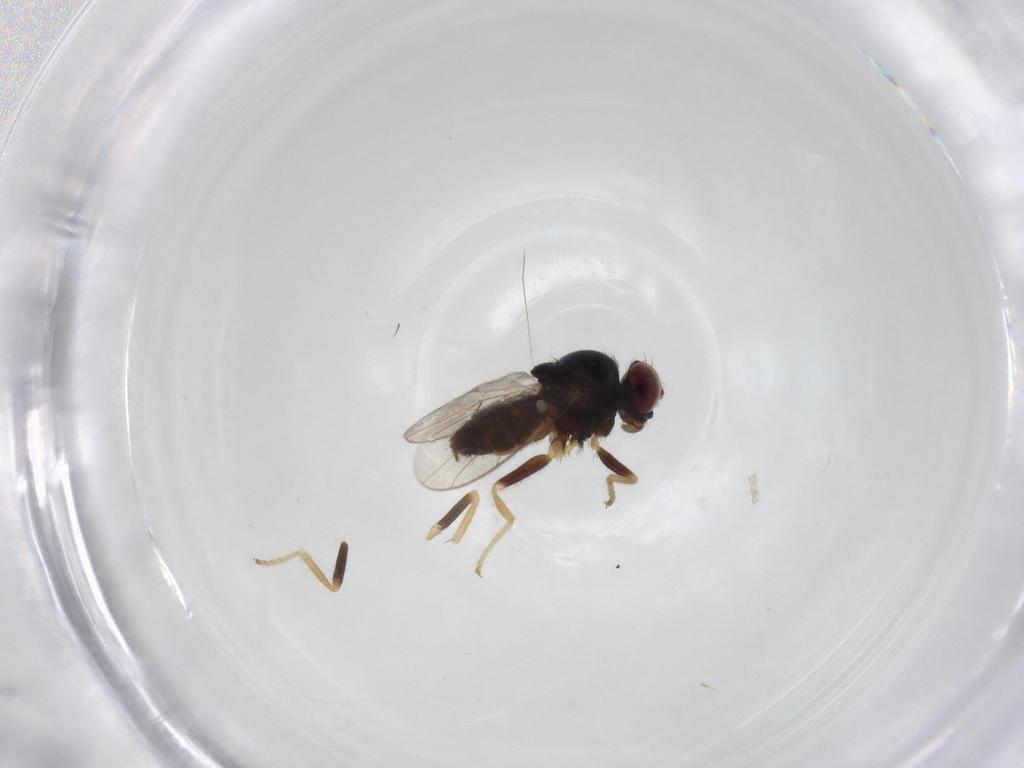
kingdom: Animalia
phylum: Arthropoda
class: Insecta
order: Diptera
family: Chloropidae
